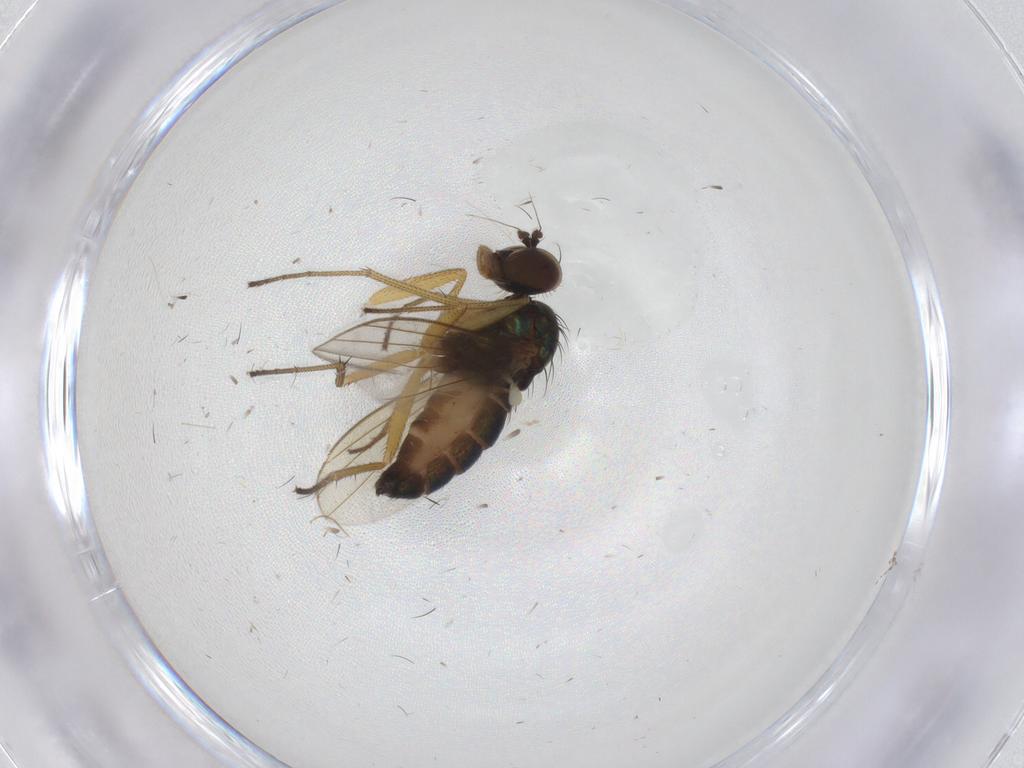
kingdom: Animalia
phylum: Arthropoda
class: Insecta
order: Diptera
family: Dolichopodidae
